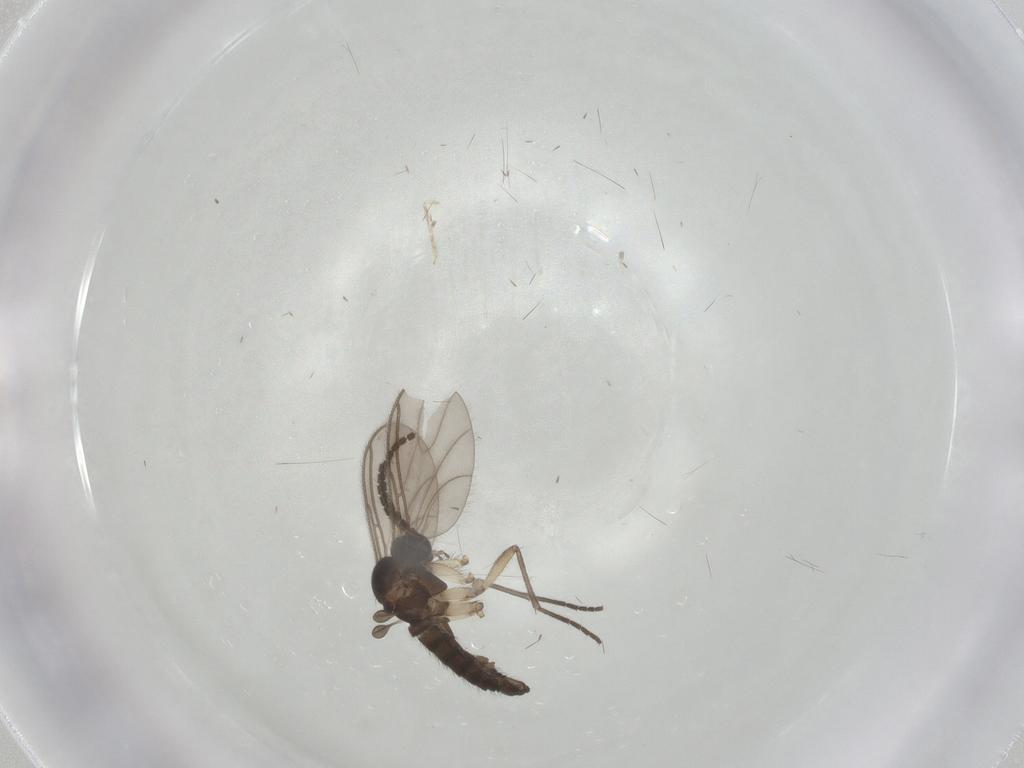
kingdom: Animalia
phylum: Arthropoda
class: Insecta
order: Diptera
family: Sciaridae
